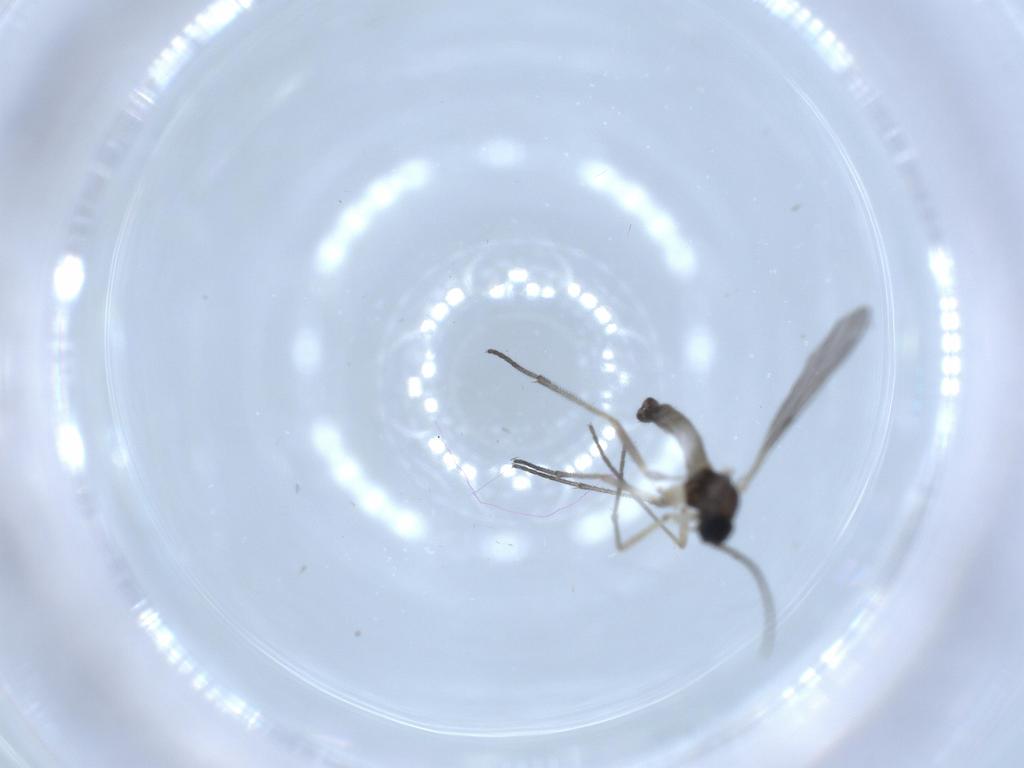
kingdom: Animalia
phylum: Arthropoda
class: Insecta
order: Diptera
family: Sciaridae
